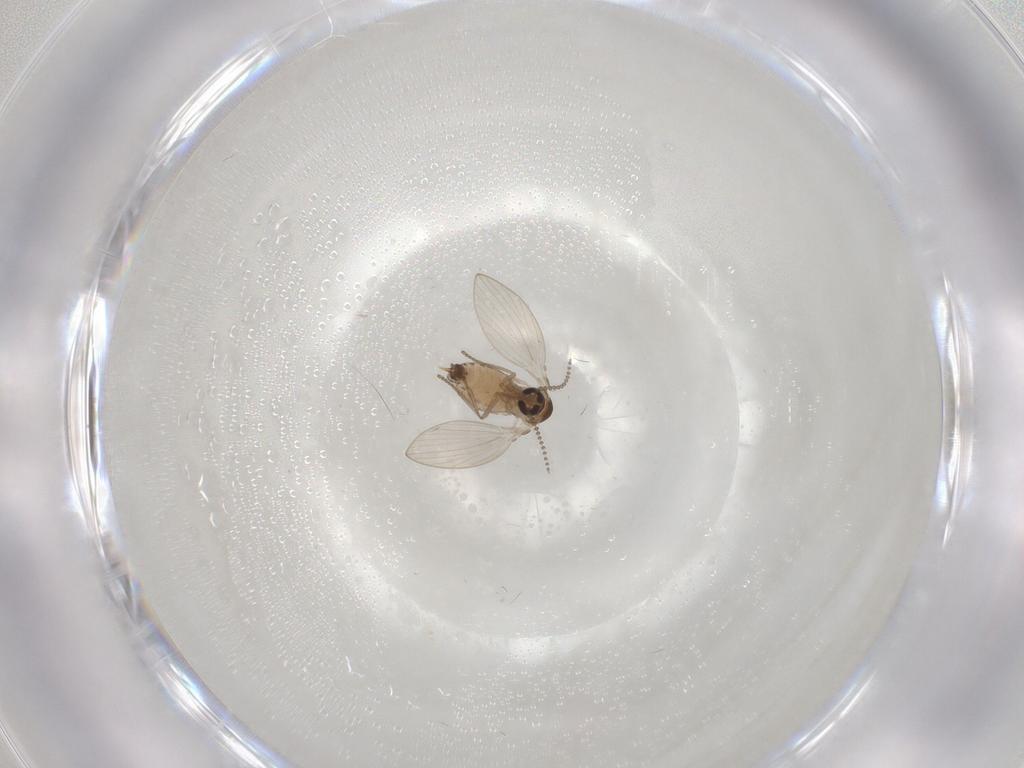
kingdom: Animalia
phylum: Arthropoda
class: Insecta
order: Diptera
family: Psychodidae
